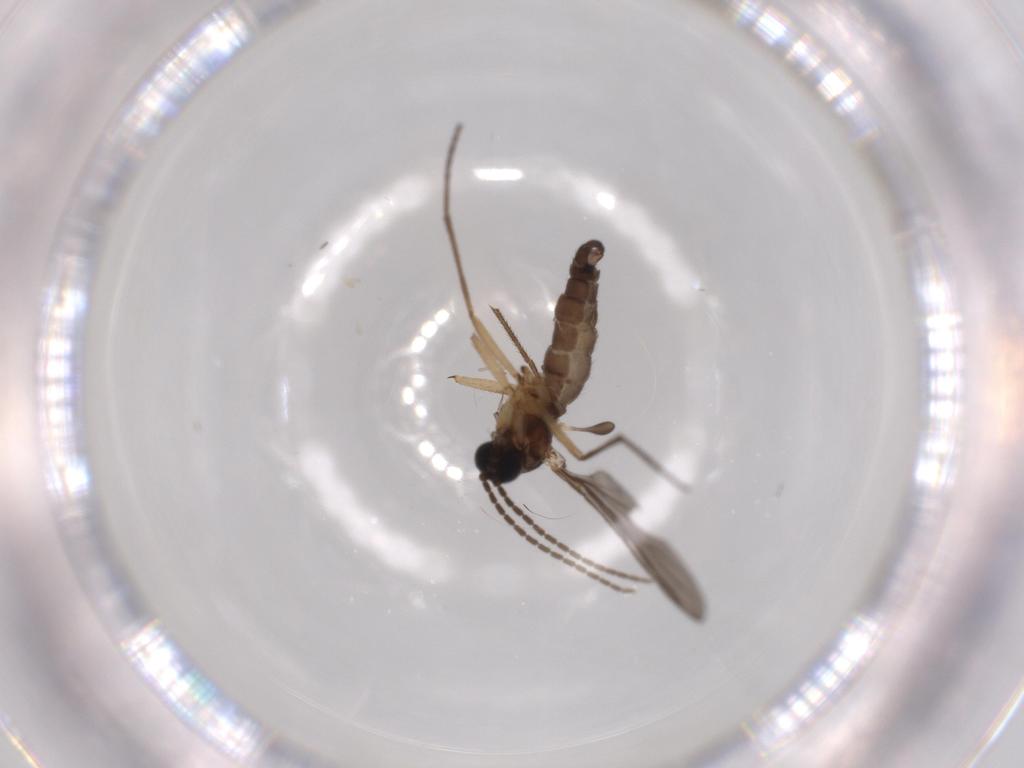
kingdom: Animalia
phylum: Arthropoda
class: Insecta
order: Diptera
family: Sciaridae
